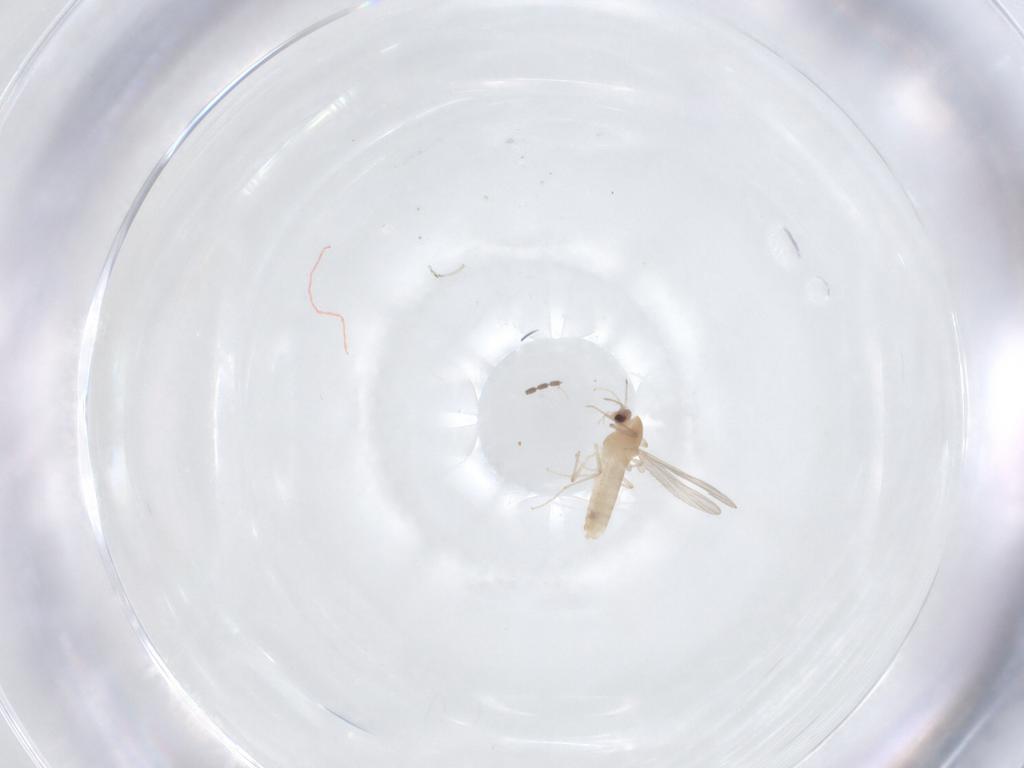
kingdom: Animalia
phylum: Arthropoda
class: Insecta
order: Diptera
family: Cecidomyiidae
